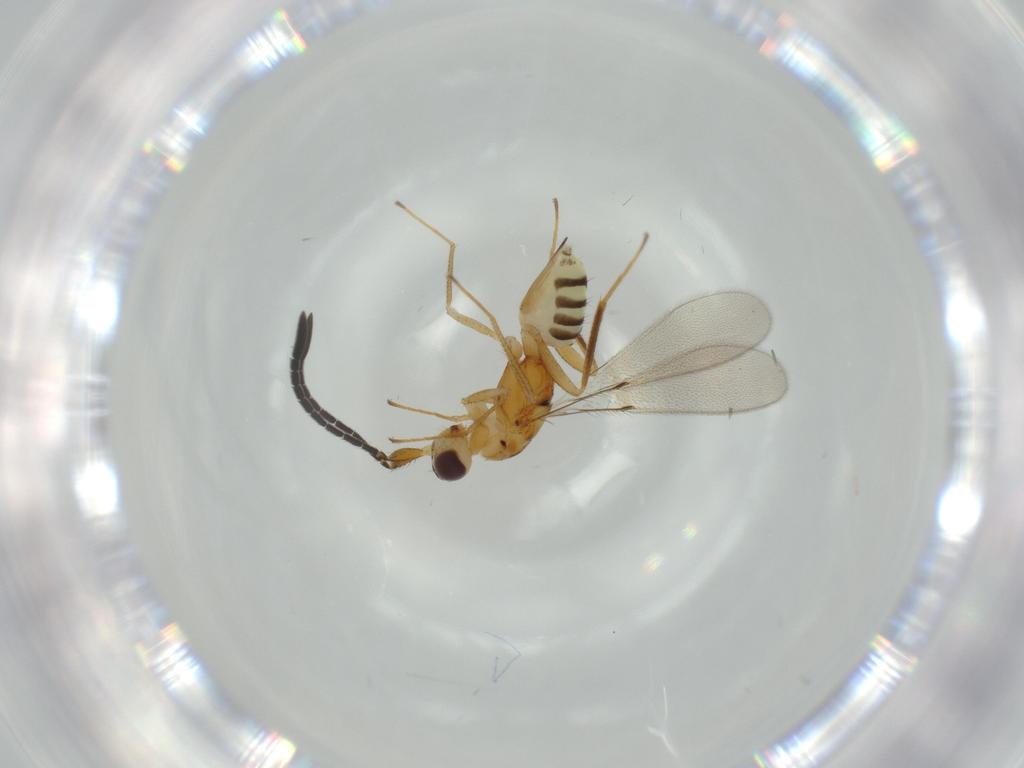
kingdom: Animalia
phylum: Arthropoda
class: Insecta
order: Hymenoptera
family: Mymaridae
